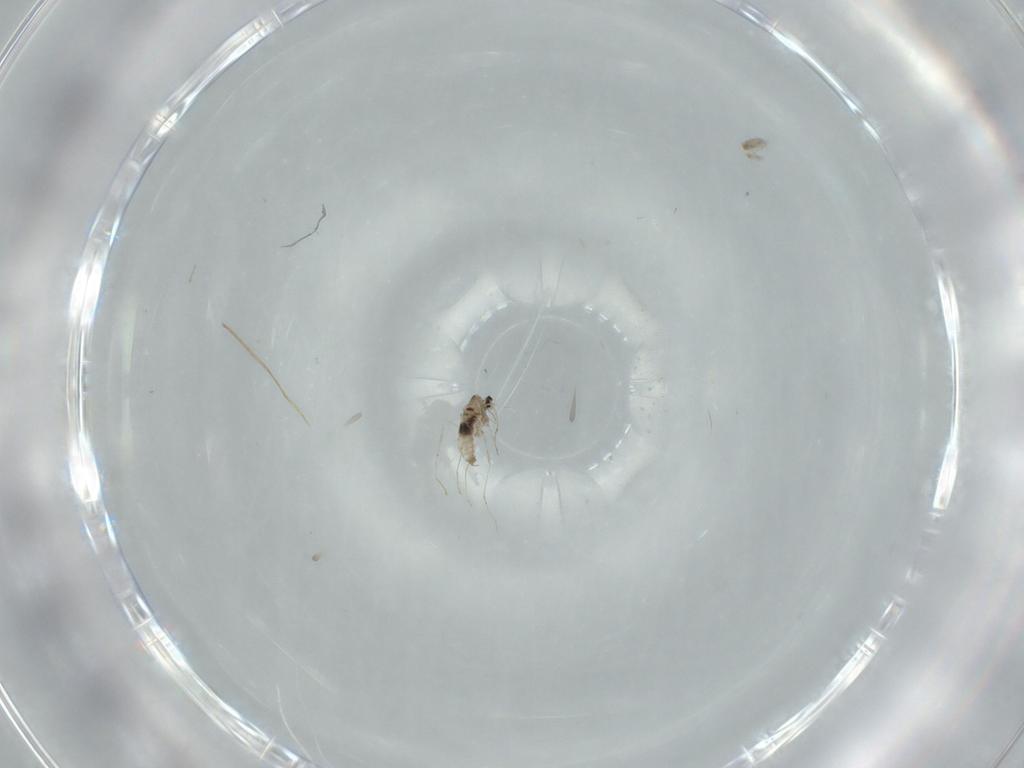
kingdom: Animalia
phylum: Arthropoda
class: Insecta
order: Diptera
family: Phoridae
